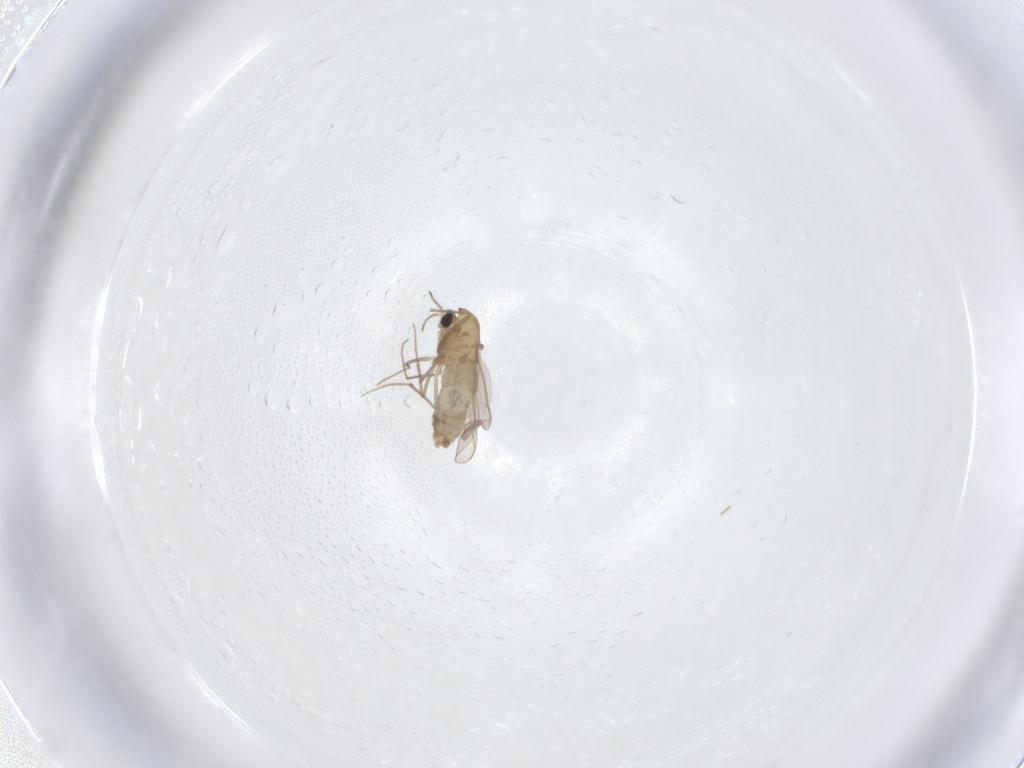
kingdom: Animalia
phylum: Arthropoda
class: Insecta
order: Diptera
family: Chironomidae
